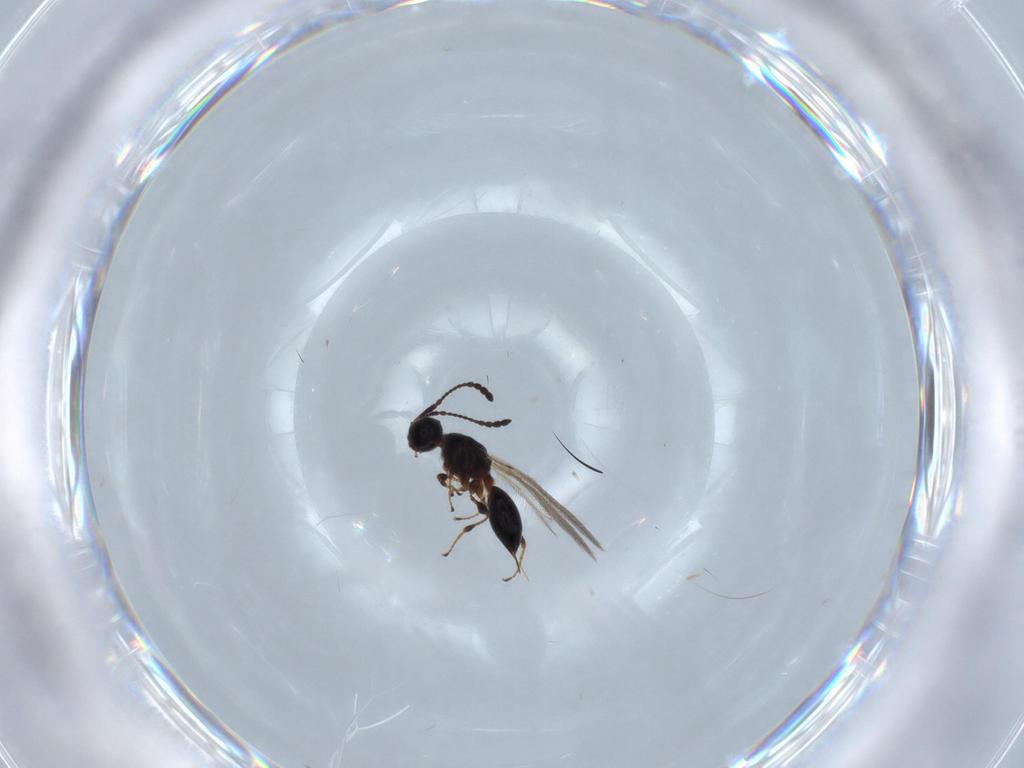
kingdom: Animalia
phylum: Arthropoda
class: Insecta
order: Hymenoptera
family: Diapriidae
